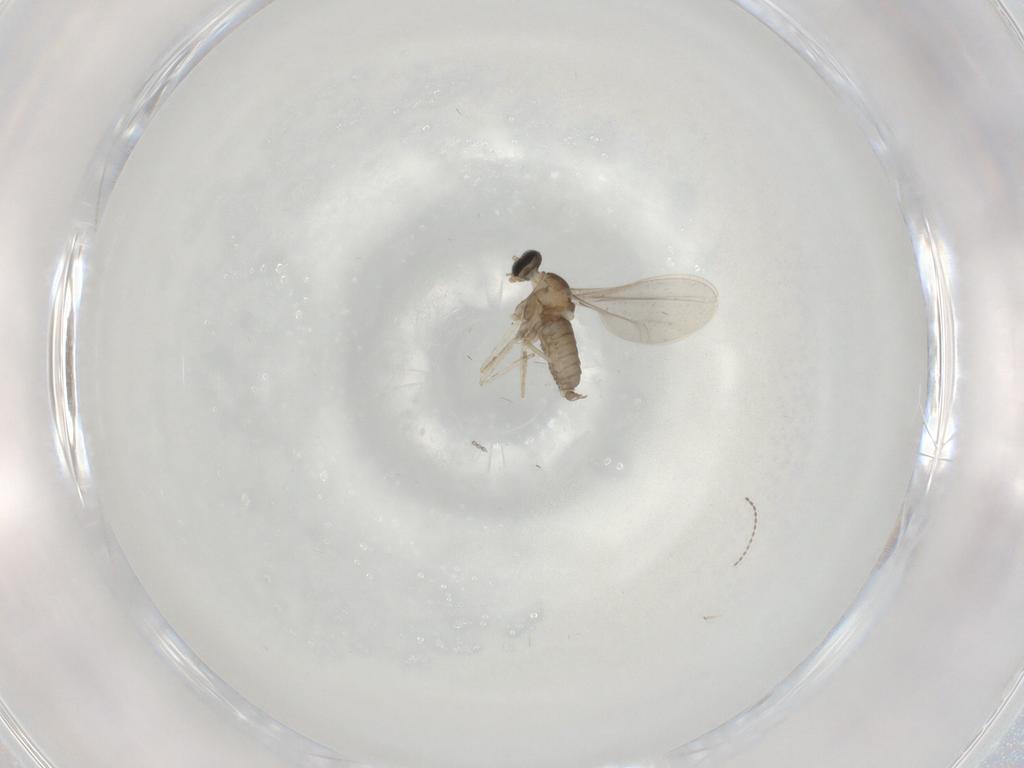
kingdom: Animalia
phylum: Arthropoda
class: Insecta
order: Diptera
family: Cecidomyiidae
